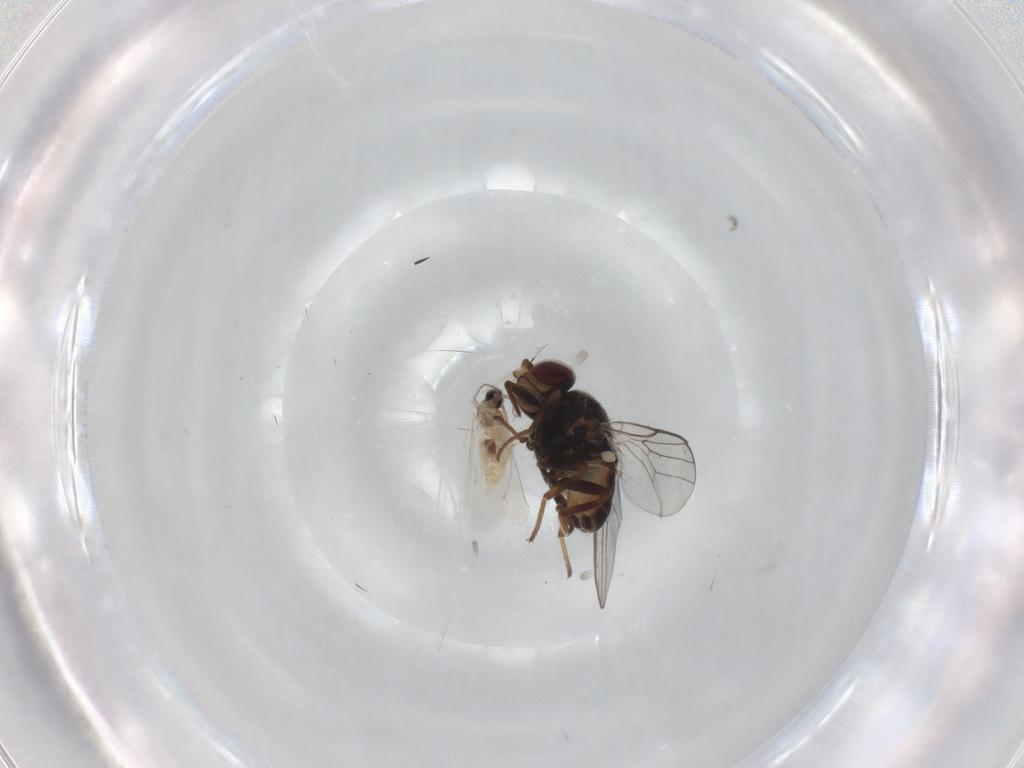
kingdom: Animalia
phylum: Arthropoda
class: Insecta
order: Diptera
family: Chloropidae
